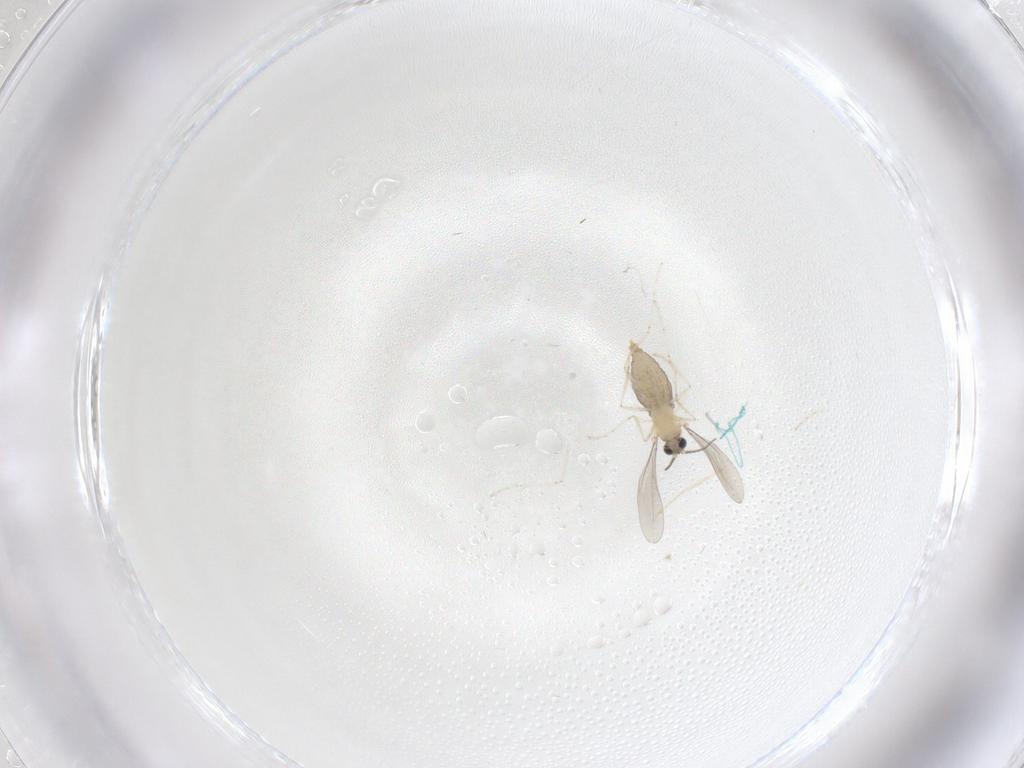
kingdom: Animalia
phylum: Arthropoda
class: Insecta
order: Diptera
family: Cecidomyiidae
